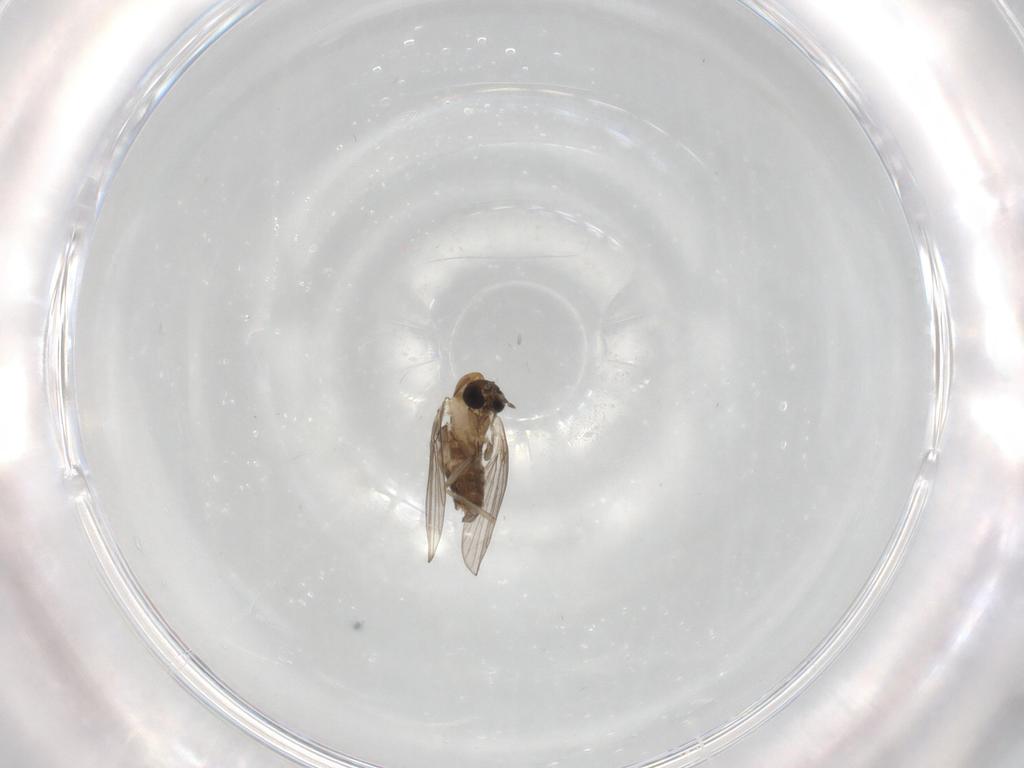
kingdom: Animalia
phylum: Arthropoda
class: Insecta
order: Diptera
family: Psychodidae
